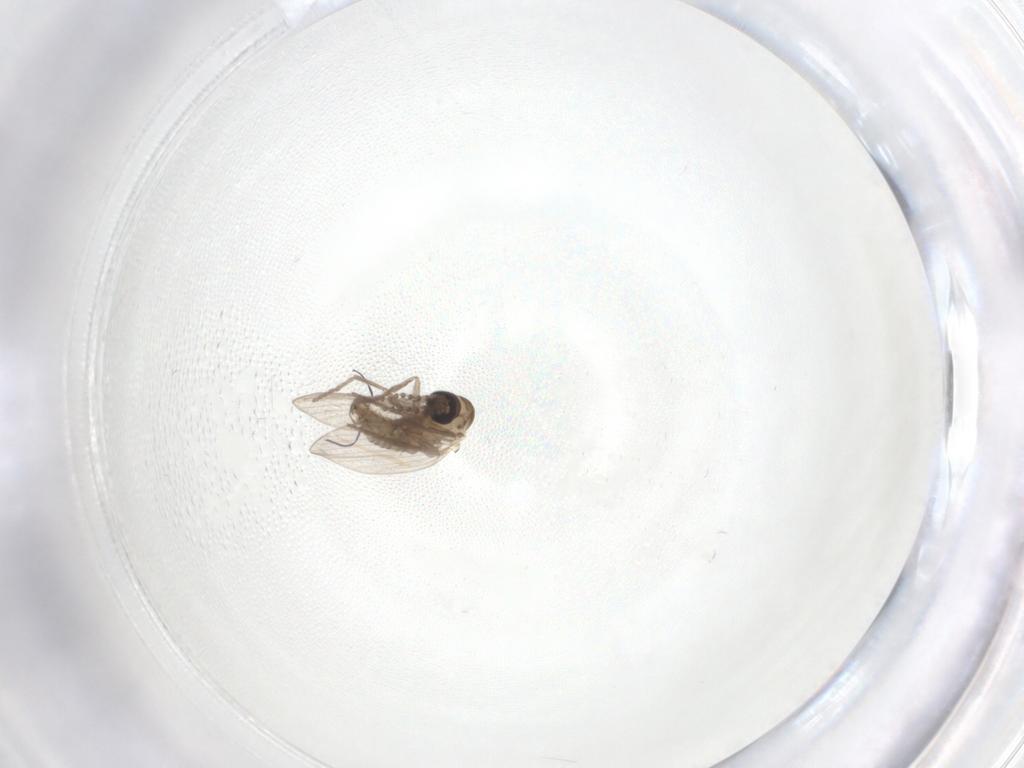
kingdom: Animalia
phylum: Arthropoda
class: Insecta
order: Diptera
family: Psychodidae
